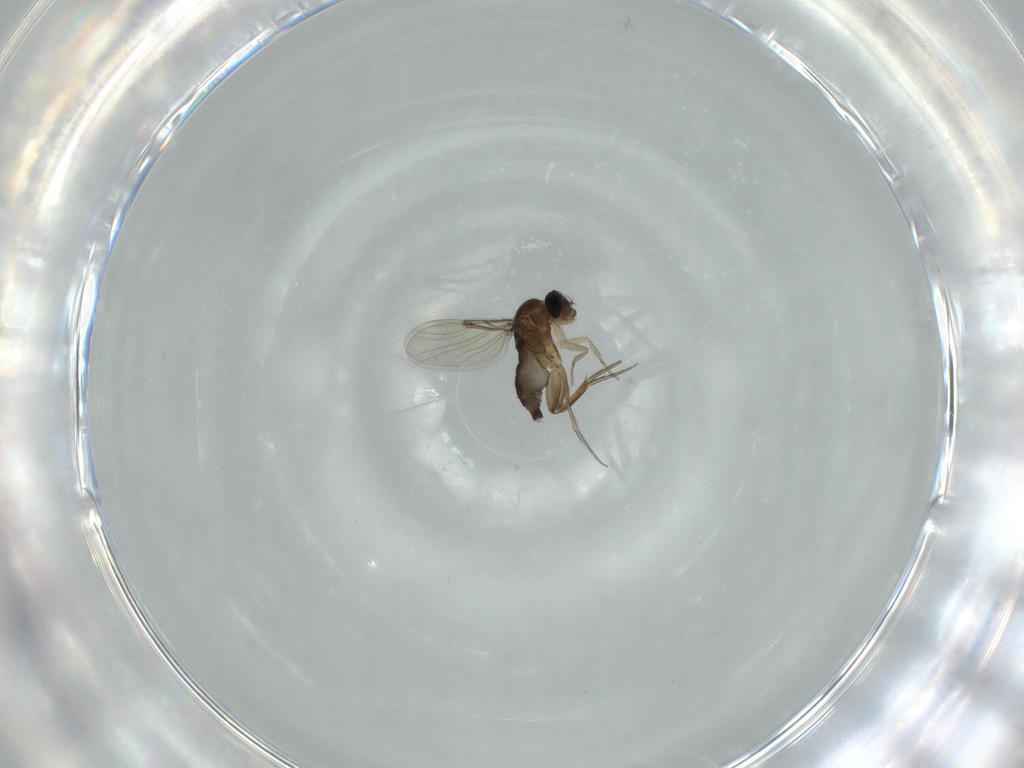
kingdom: Animalia
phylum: Arthropoda
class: Insecta
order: Diptera
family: Phoridae
